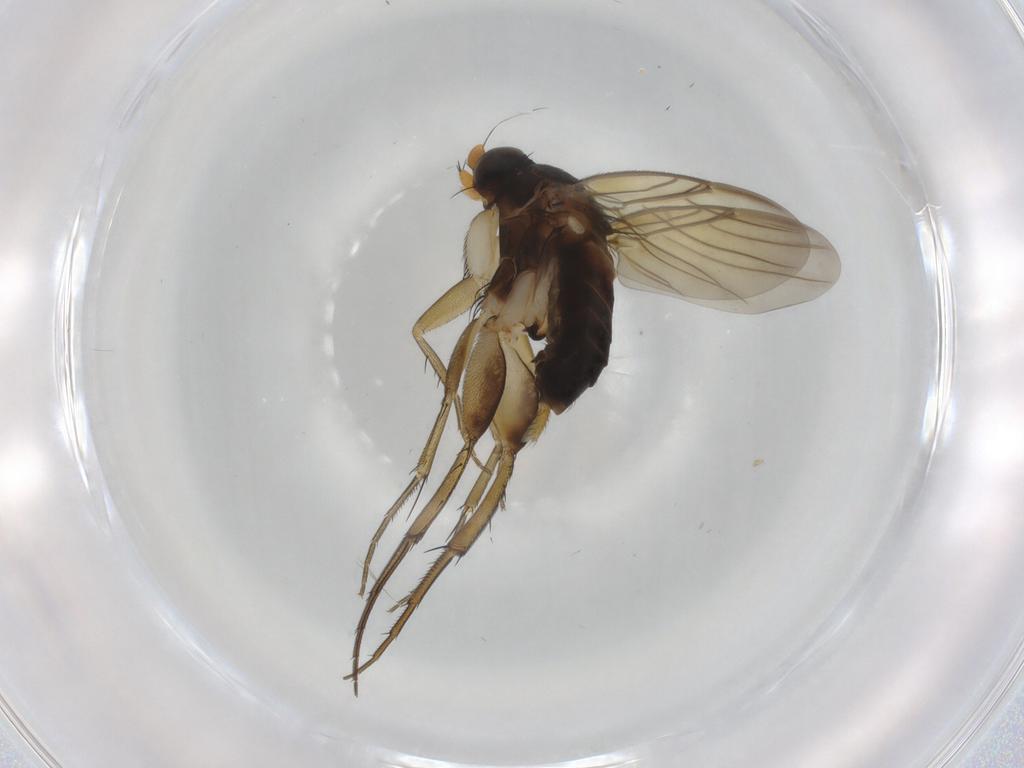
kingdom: Animalia
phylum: Arthropoda
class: Insecta
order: Diptera
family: Phoridae
